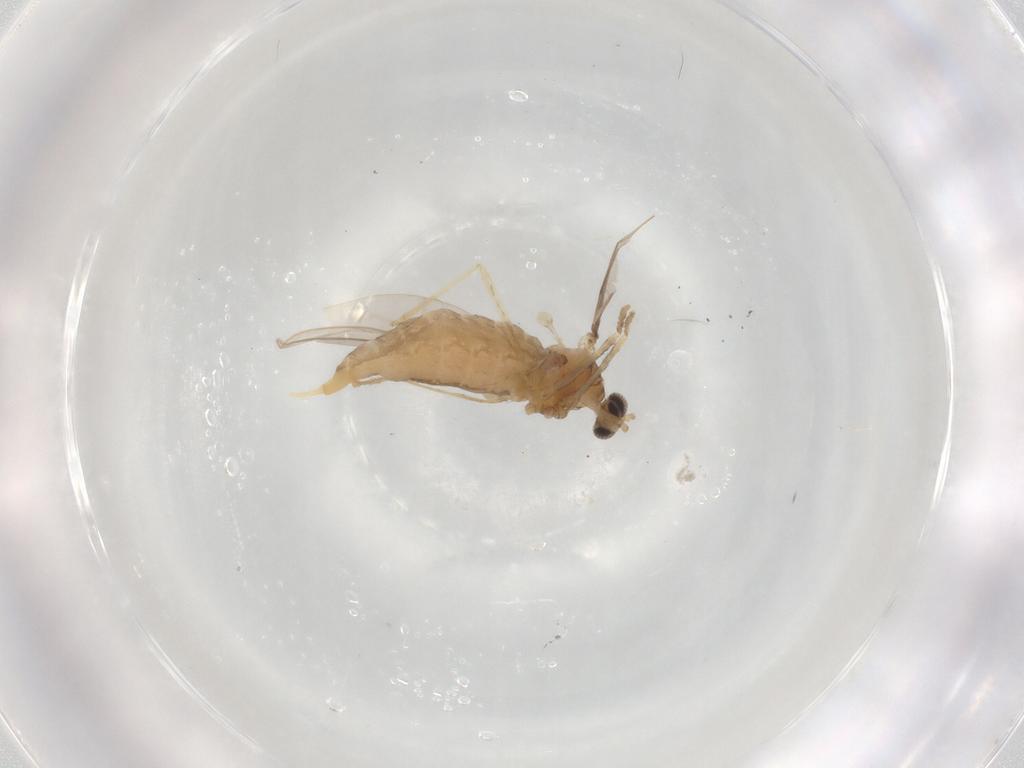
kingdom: Animalia
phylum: Arthropoda
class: Insecta
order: Diptera
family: Cecidomyiidae
